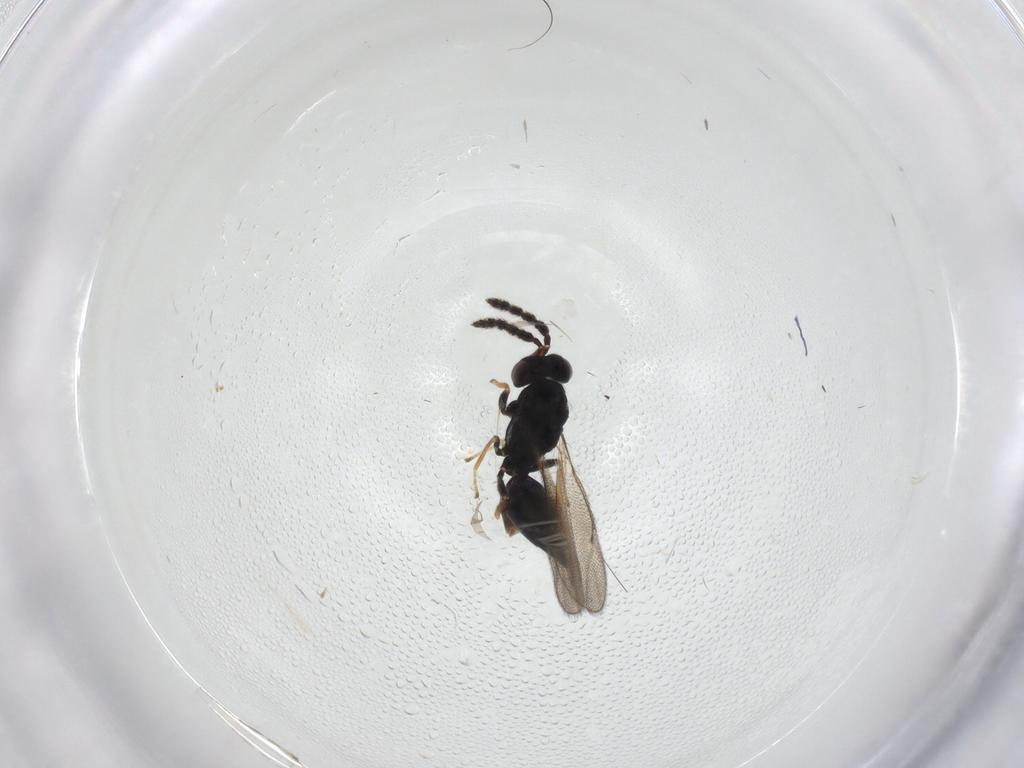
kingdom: Animalia
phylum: Arthropoda
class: Insecta
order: Hymenoptera
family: Eulophidae
